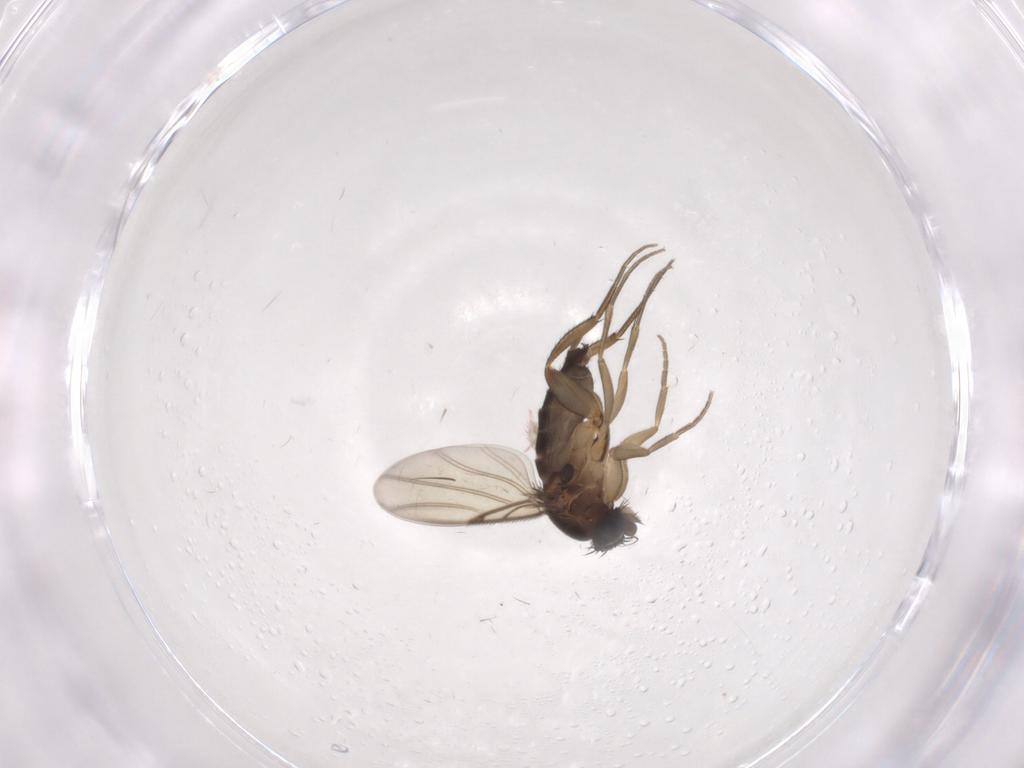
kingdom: Animalia
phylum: Arthropoda
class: Insecta
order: Diptera
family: Phoridae
